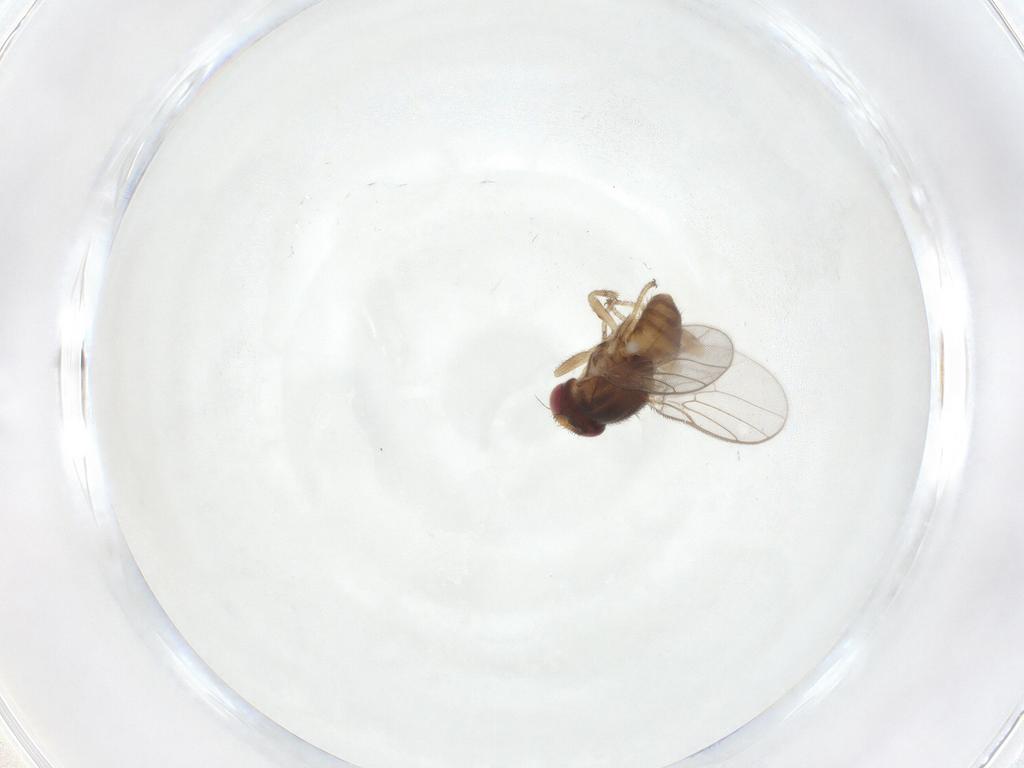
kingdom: Animalia
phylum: Arthropoda
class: Insecta
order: Diptera
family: Chloropidae
